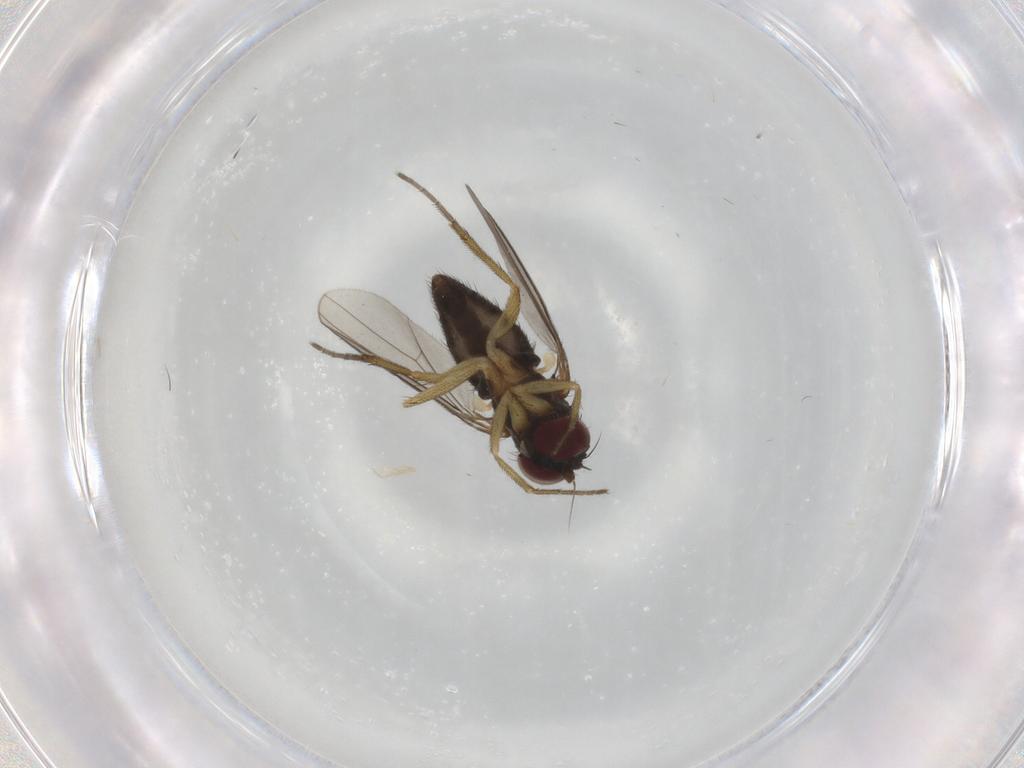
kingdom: Animalia
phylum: Arthropoda
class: Insecta
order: Diptera
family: Dolichopodidae
